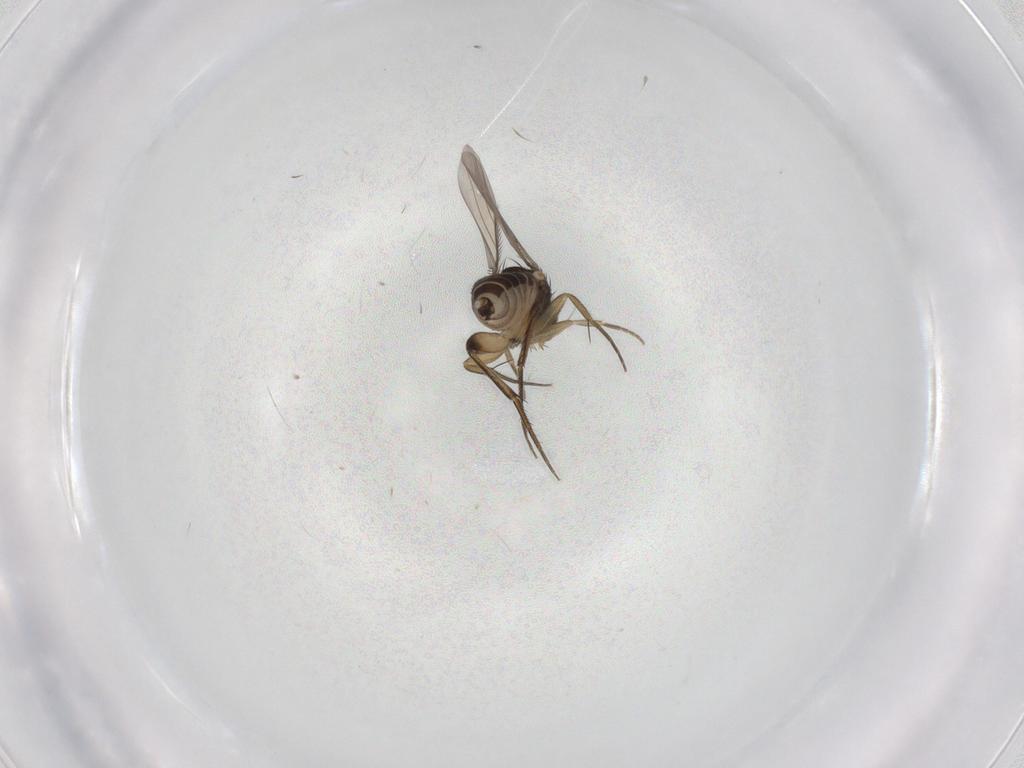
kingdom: Animalia
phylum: Arthropoda
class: Insecta
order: Diptera
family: Phoridae
